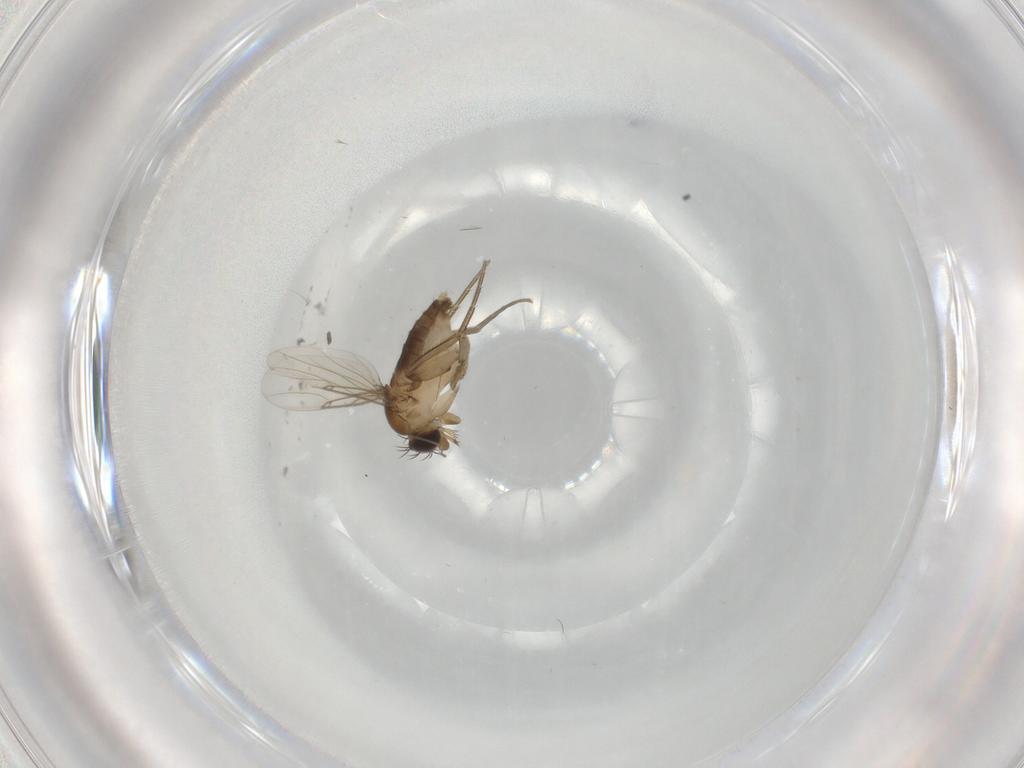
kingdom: Animalia
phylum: Arthropoda
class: Insecta
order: Diptera
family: Phoridae
